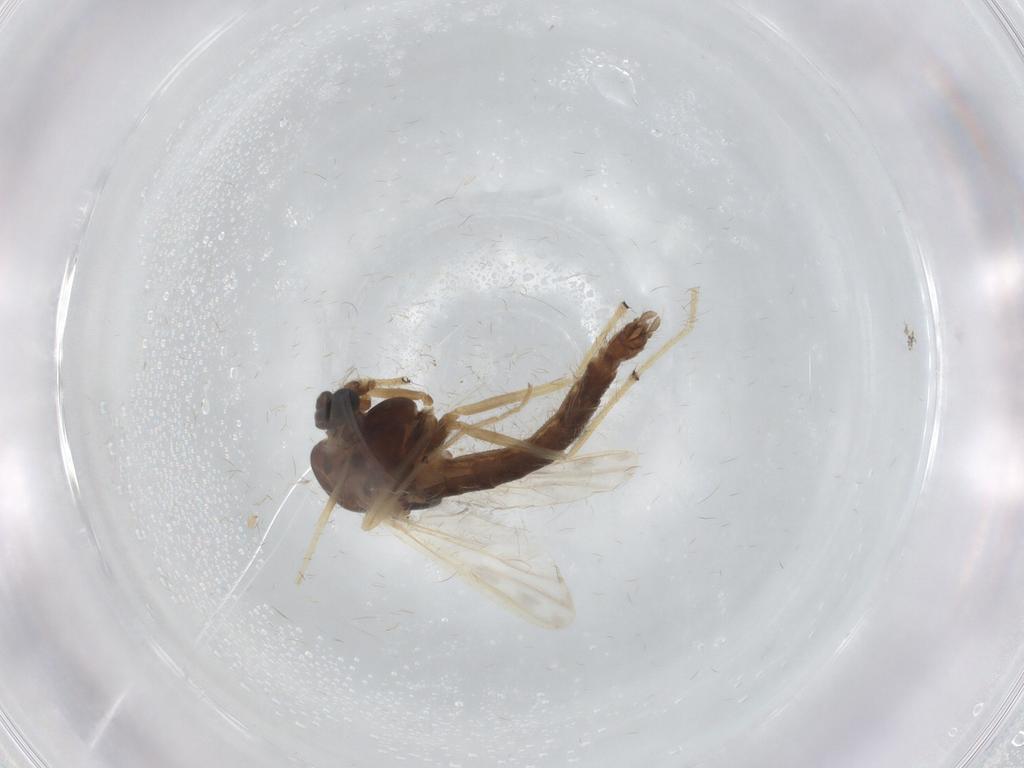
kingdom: Animalia
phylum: Arthropoda
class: Insecta
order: Diptera
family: Chironomidae
